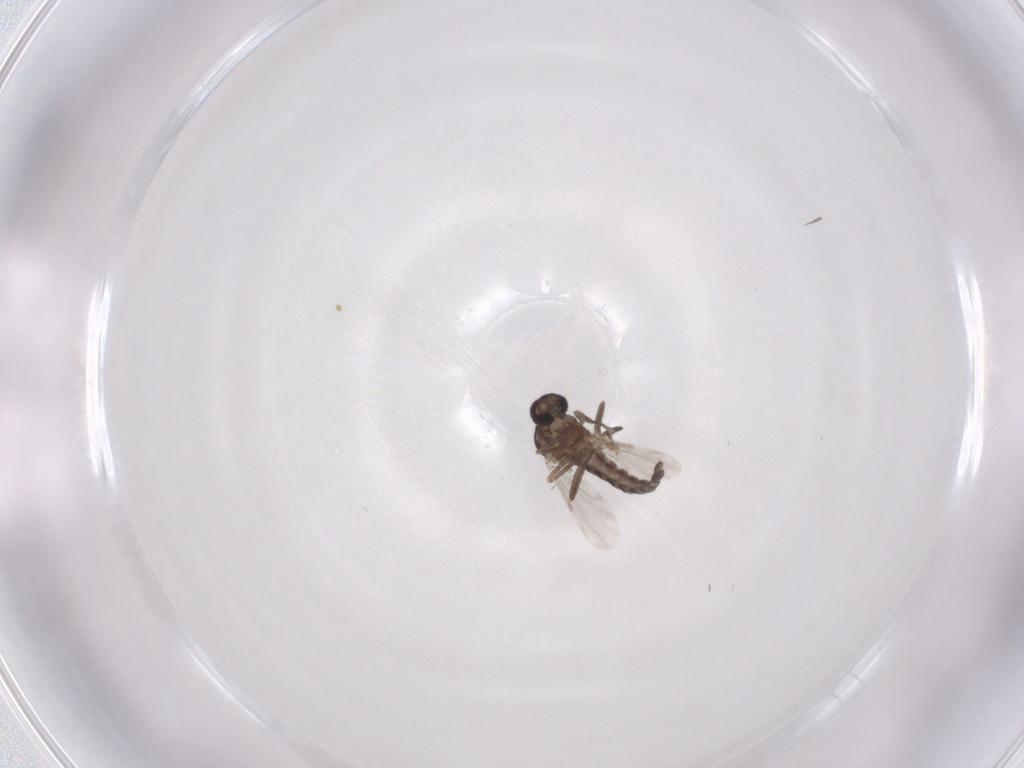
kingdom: Animalia
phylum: Arthropoda
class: Insecta
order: Diptera
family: Ceratopogonidae
